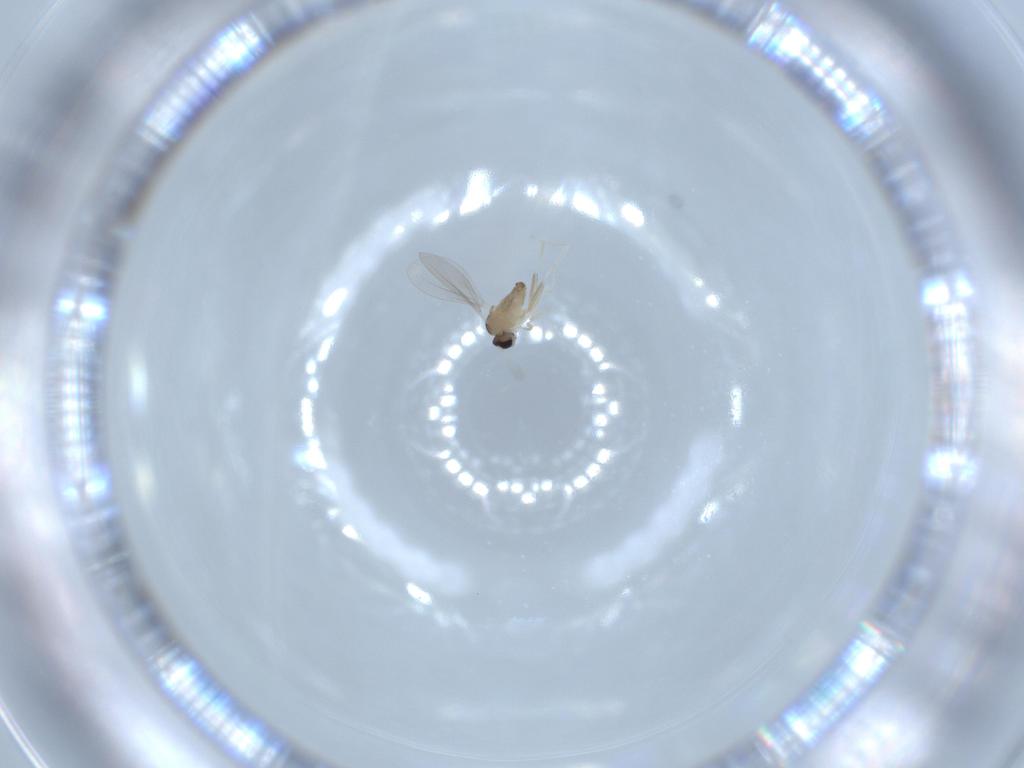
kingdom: Animalia
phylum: Arthropoda
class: Insecta
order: Diptera
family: Cecidomyiidae
